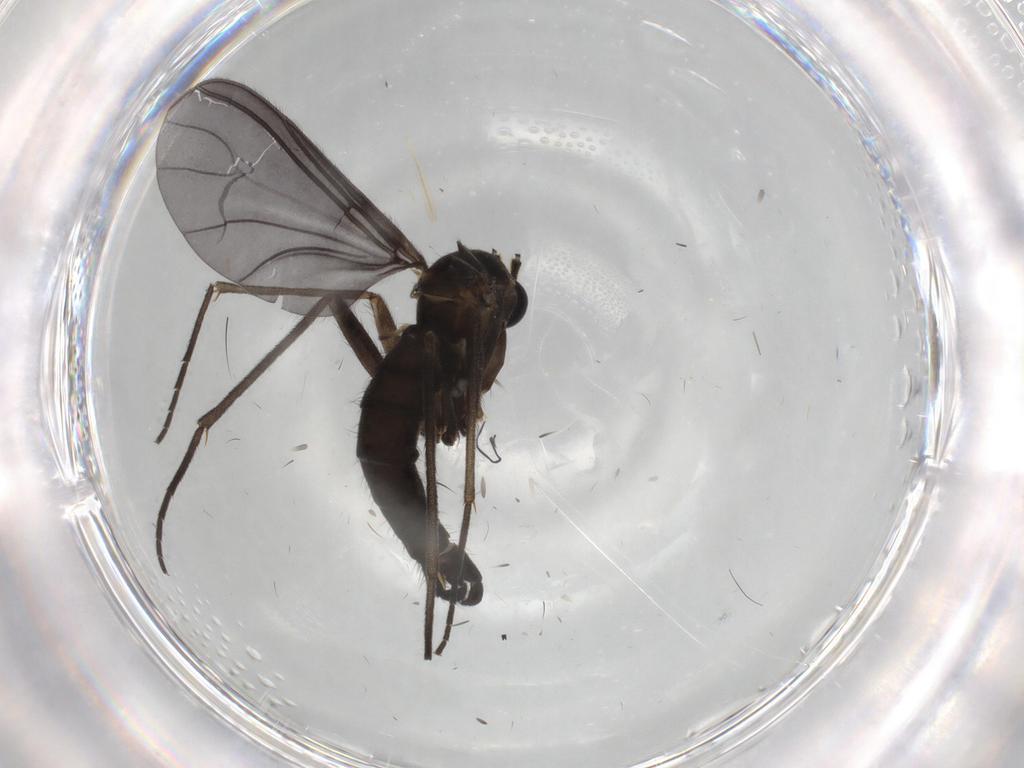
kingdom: Animalia
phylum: Arthropoda
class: Insecta
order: Diptera
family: Sciaridae
